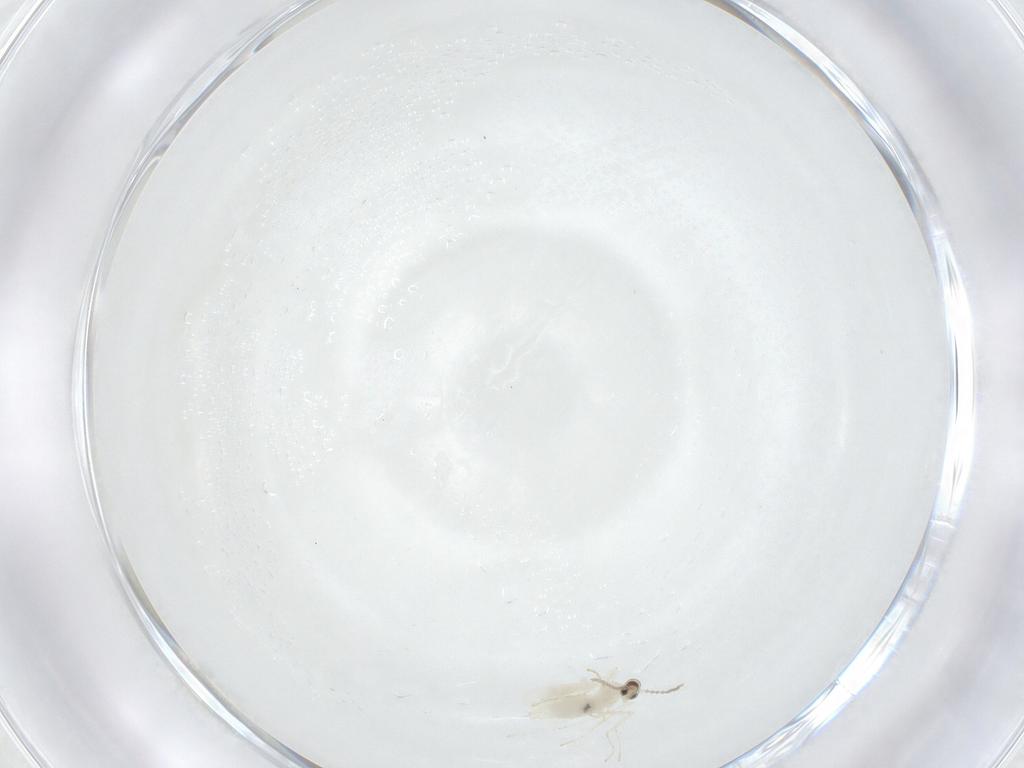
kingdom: Animalia
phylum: Arthropoda
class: Insecta
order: Diptera
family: Cecidomyiidae
